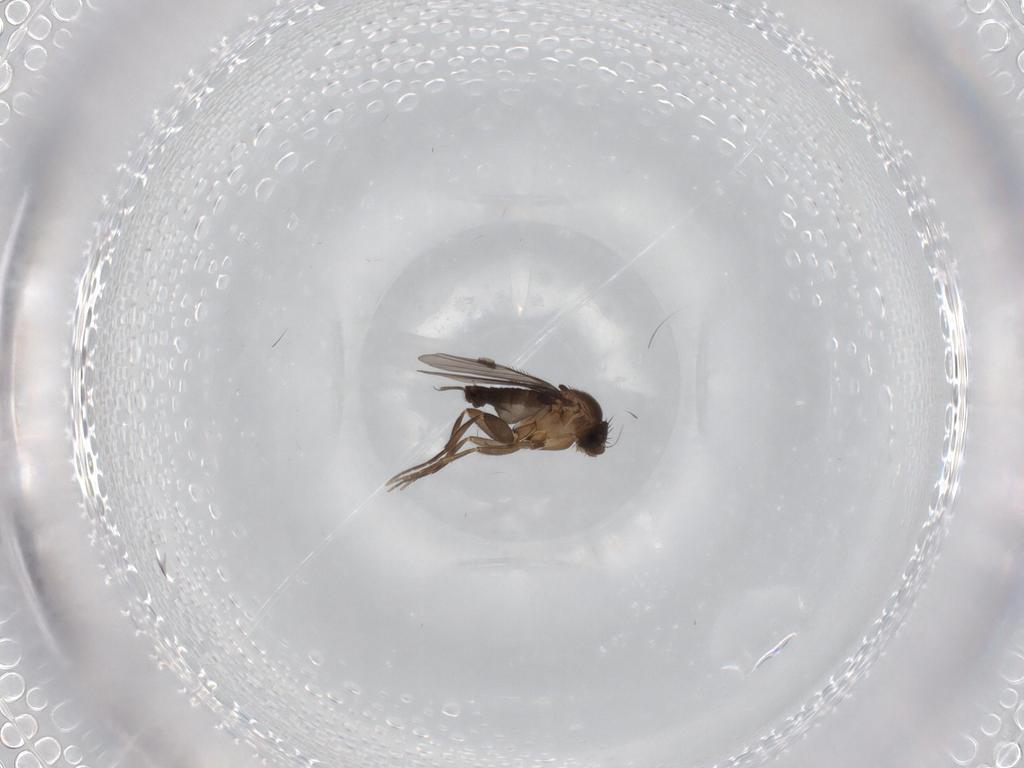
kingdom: Animalia
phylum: Arthropoda
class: Insecta
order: Diptera
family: Phoridae
